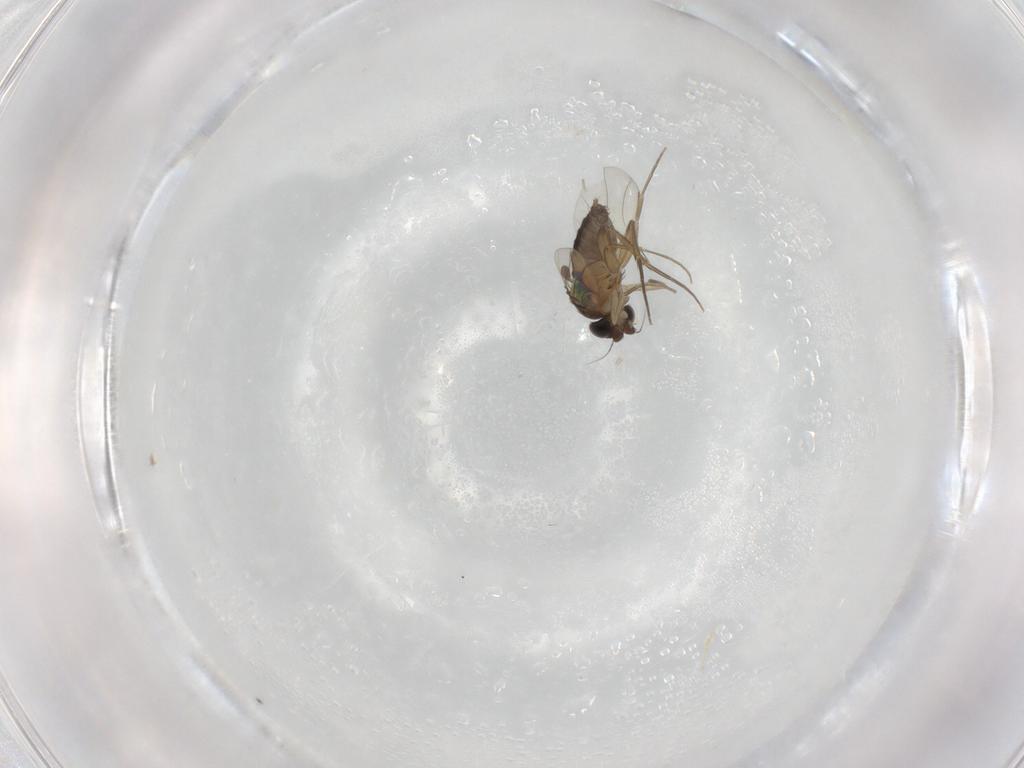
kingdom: Animalia
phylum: Arthropoda
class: Insecta
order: Diptera
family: Phoridae
